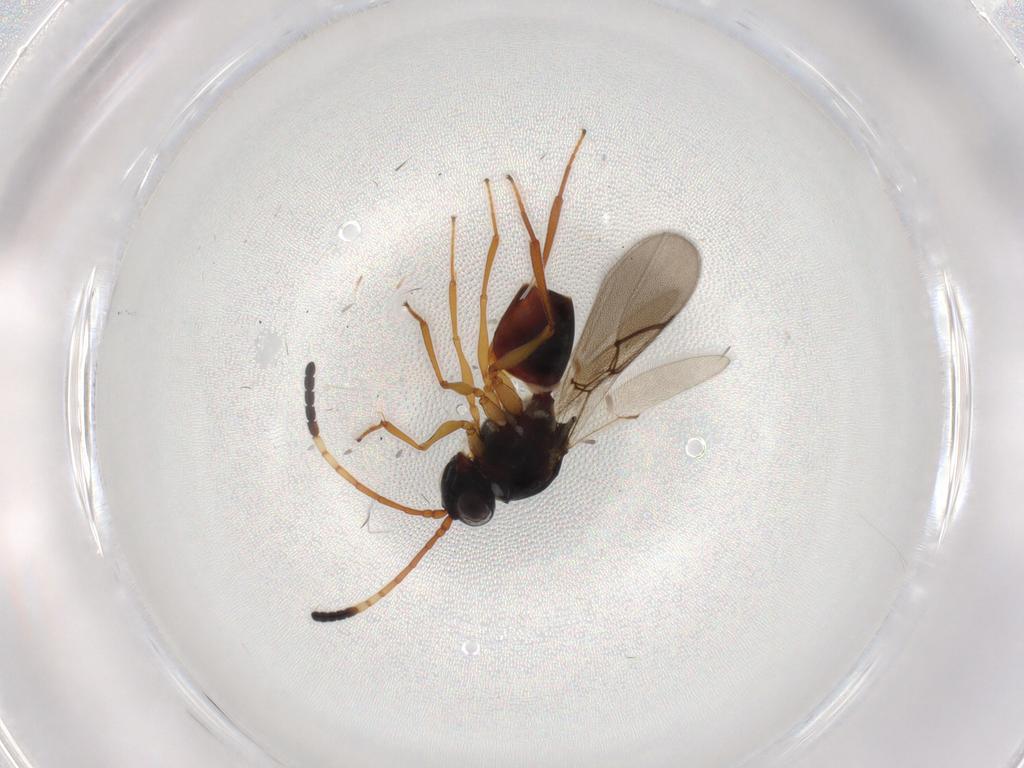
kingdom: Animalia
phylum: Arthropoda
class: Insecta
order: Hymenoptera
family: Figitidae
